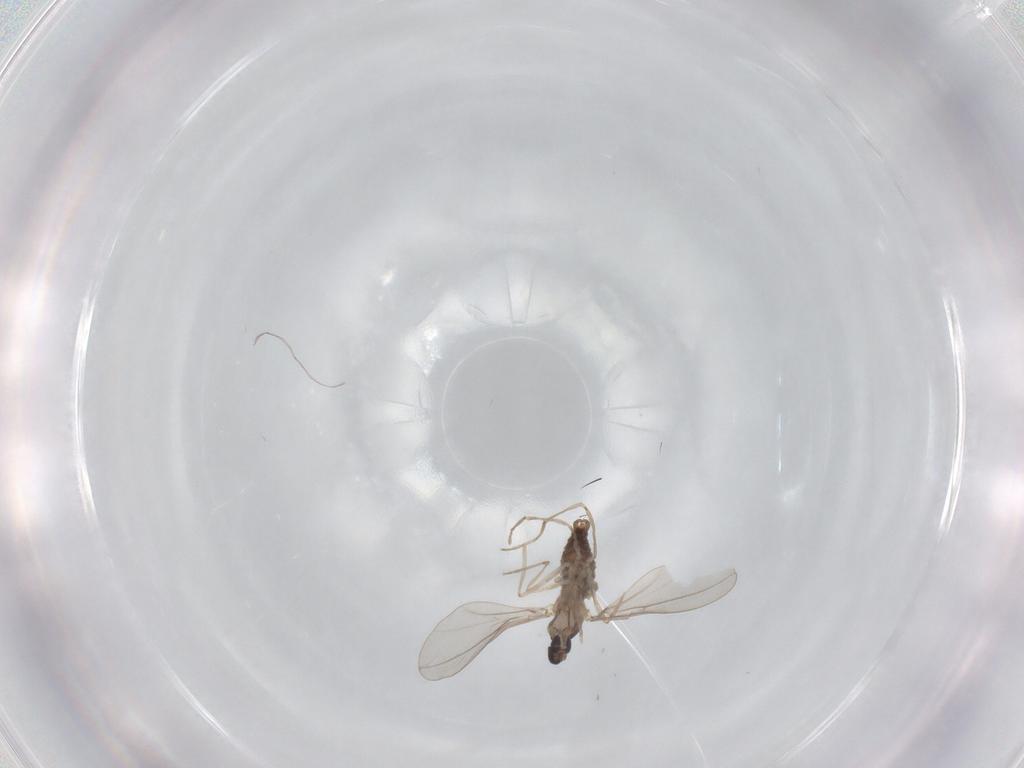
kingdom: Animalia
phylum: Arthropoda
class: Insecta
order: Diptera
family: Cecidomyiidae
